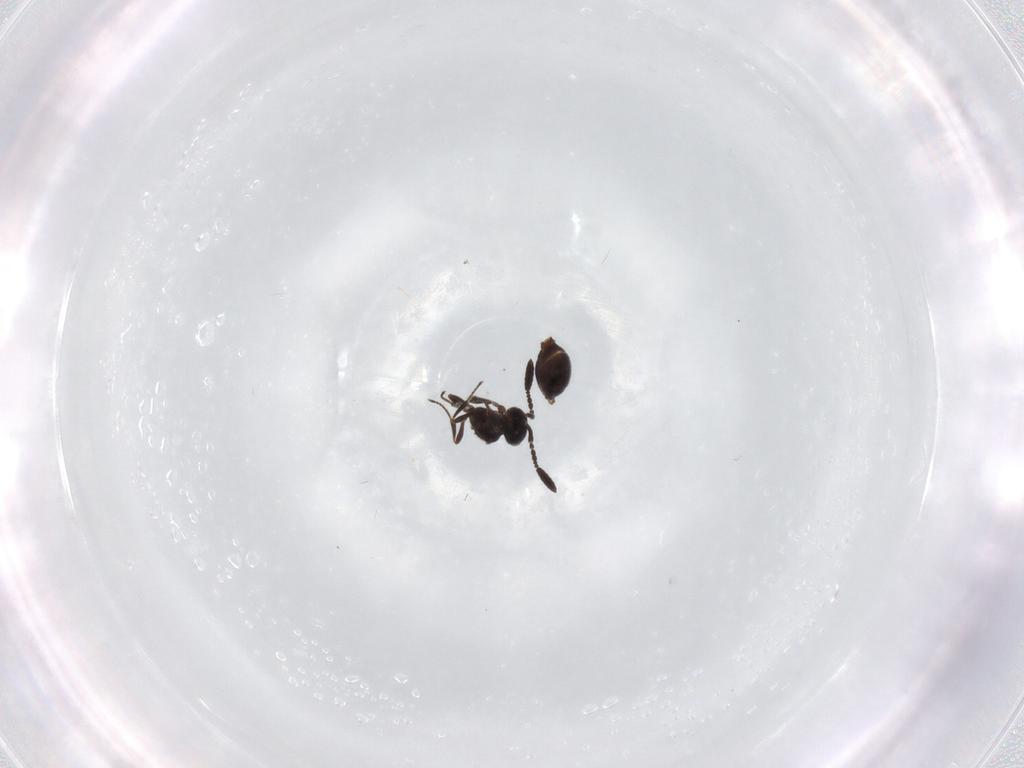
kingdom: Animalia
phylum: Arthropoda
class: Insecta
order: Hymenoptera
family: Scelionidae
